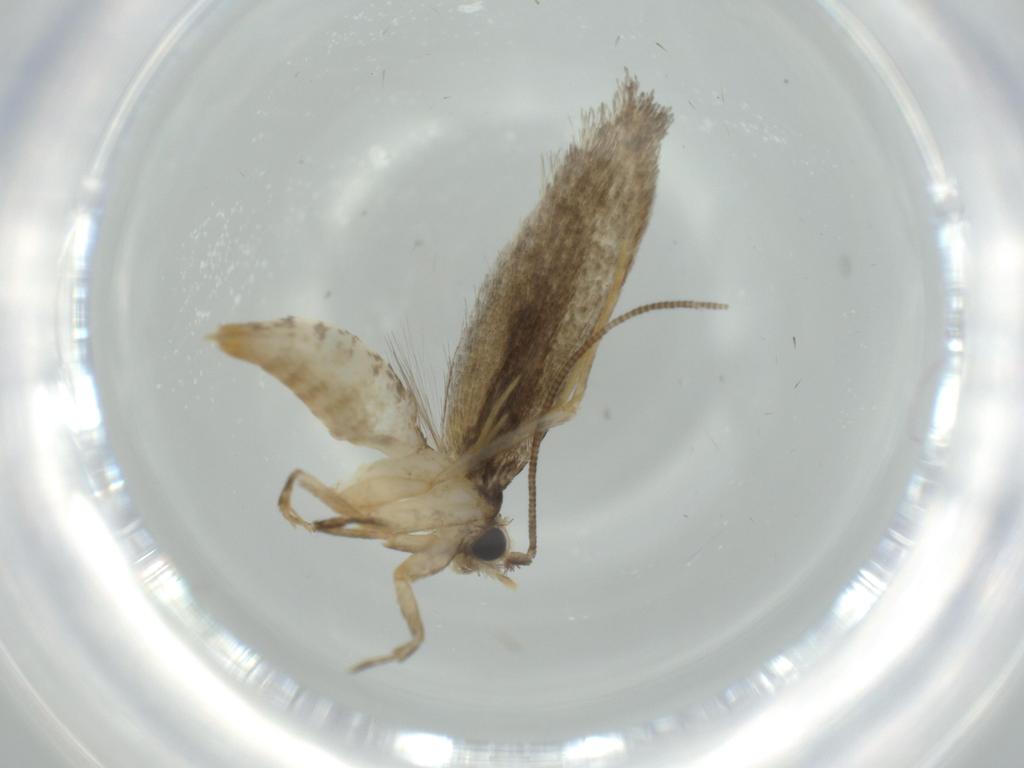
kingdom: Animalia
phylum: Arthropoda
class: Insecta
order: Lepidoptera
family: Tineidae
